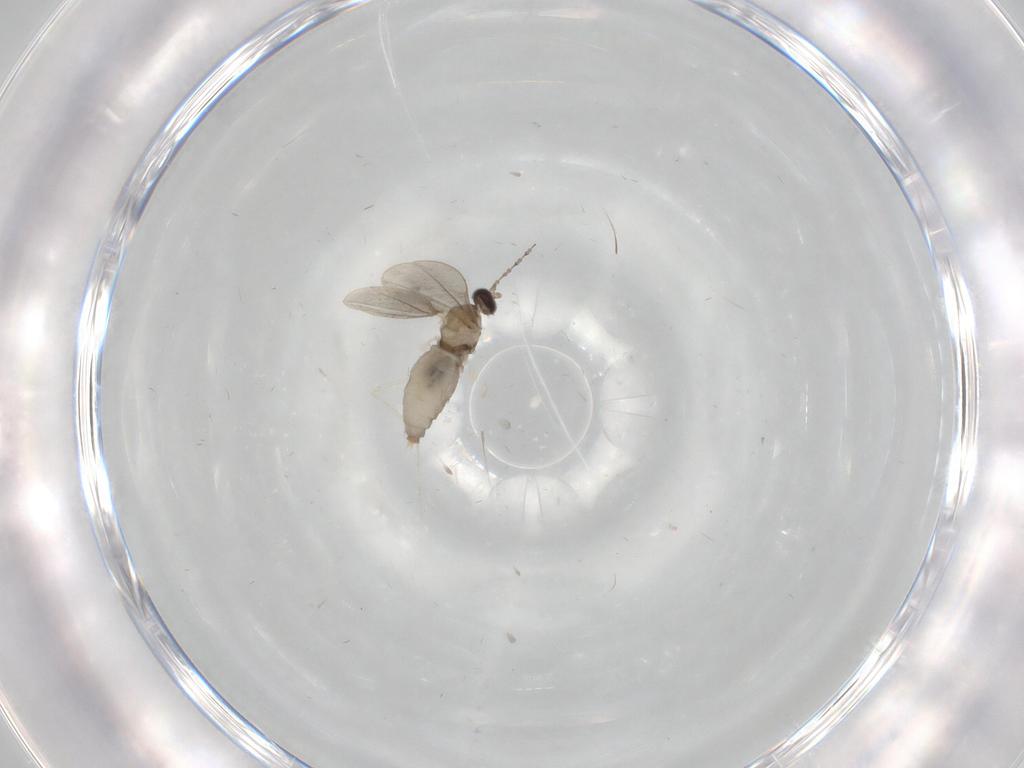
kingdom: Animalia
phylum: Arthropoda
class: Insecta
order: Diptera
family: Cecidomyiidae
